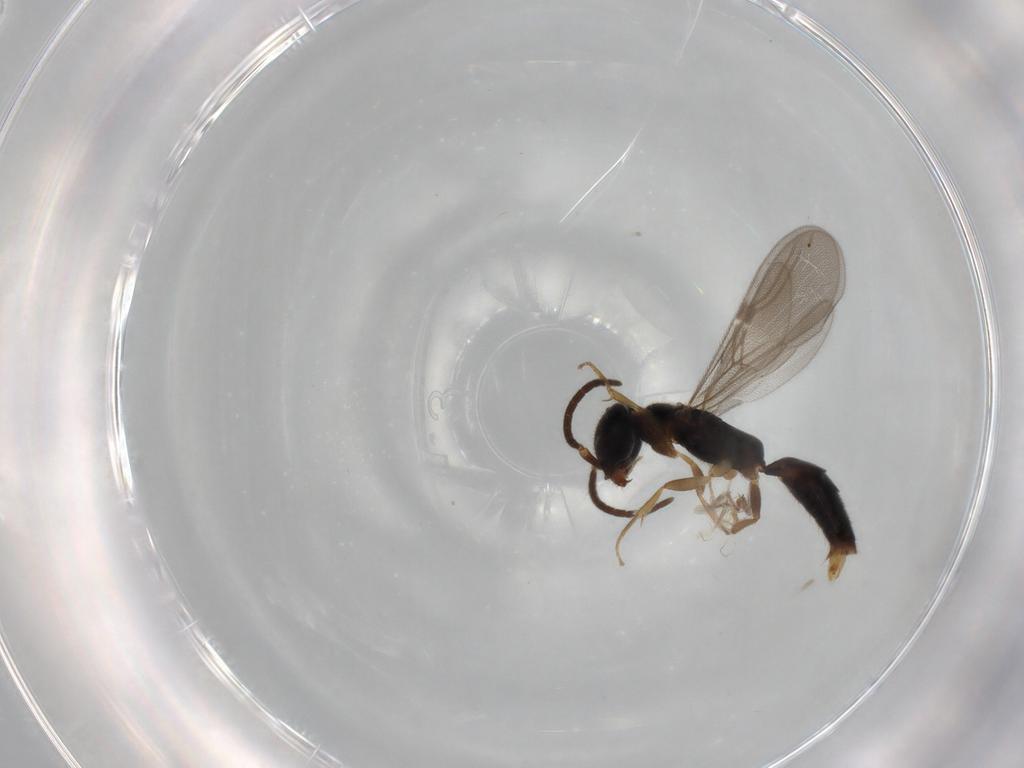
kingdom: Animalia
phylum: Arthropoda
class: Insecta
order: Hymenoptera
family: Bethylidae
